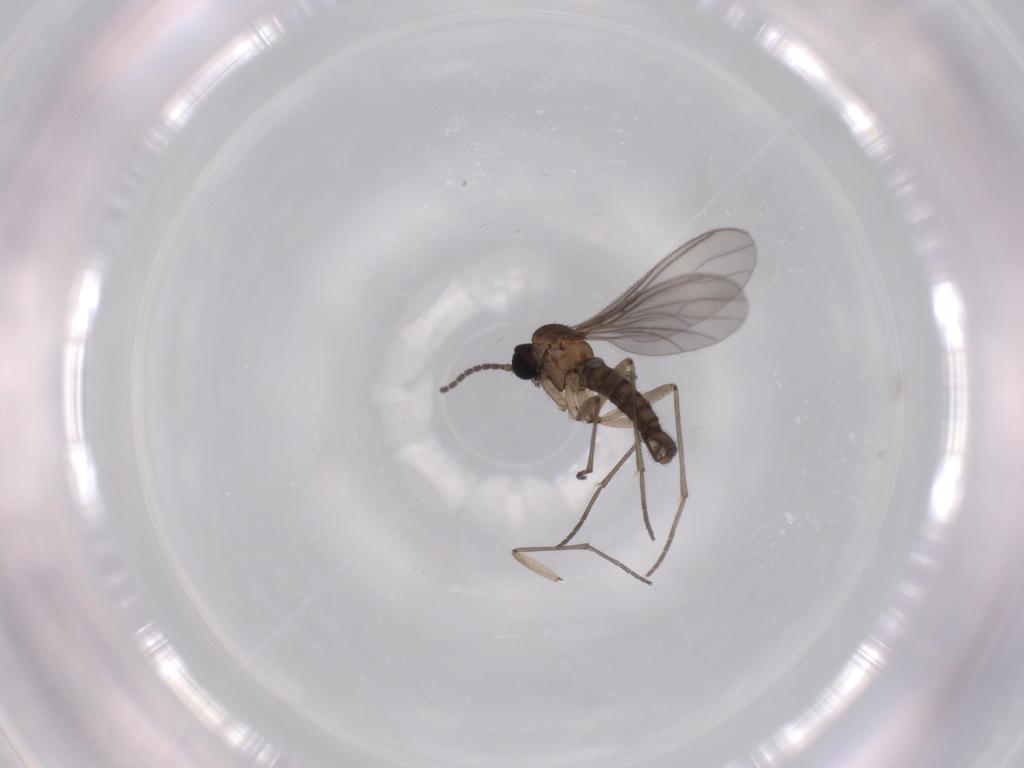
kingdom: Animalia
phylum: Arthropoda
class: Insecta
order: Diptera
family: Sciaridae
